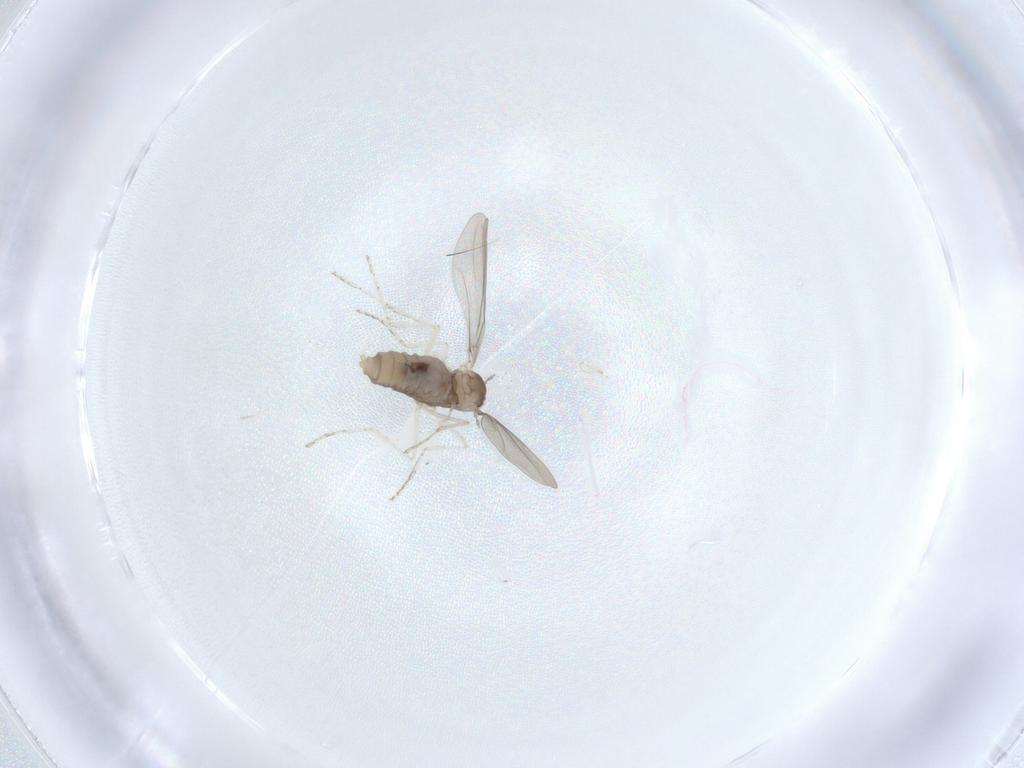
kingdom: Animalia
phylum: Arthropoda
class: Insecta
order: Diptera
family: Sciaridae
